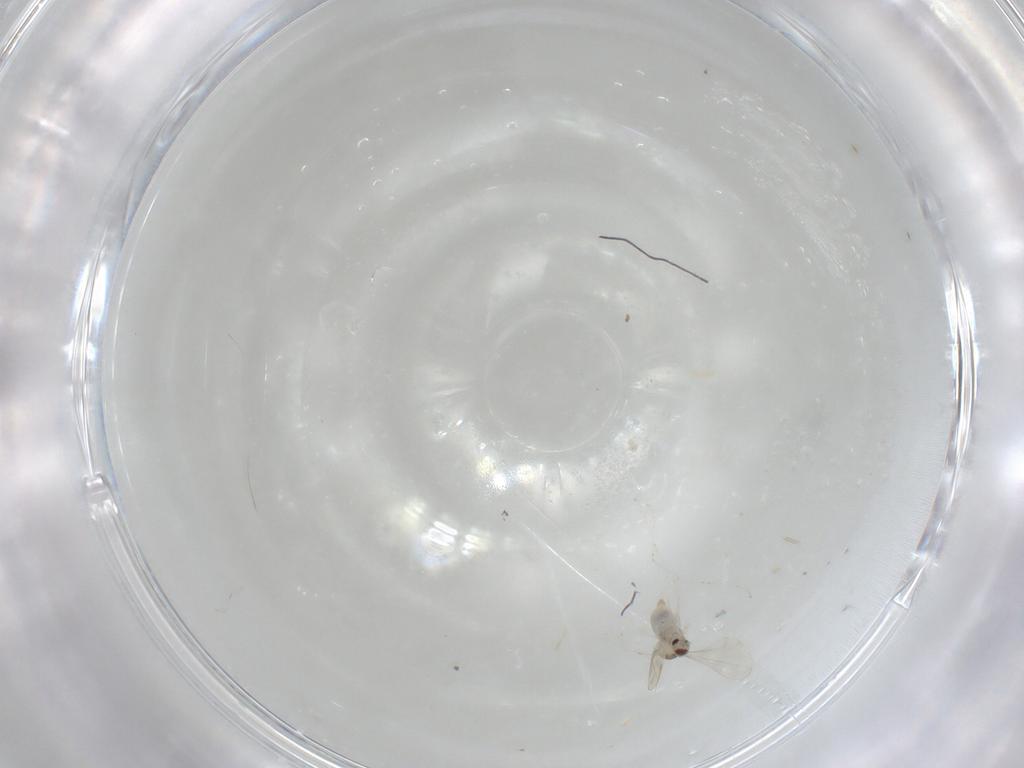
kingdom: Animalia
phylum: Arthropoda
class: Insecta
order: Diptera
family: Cecidomyiidae
